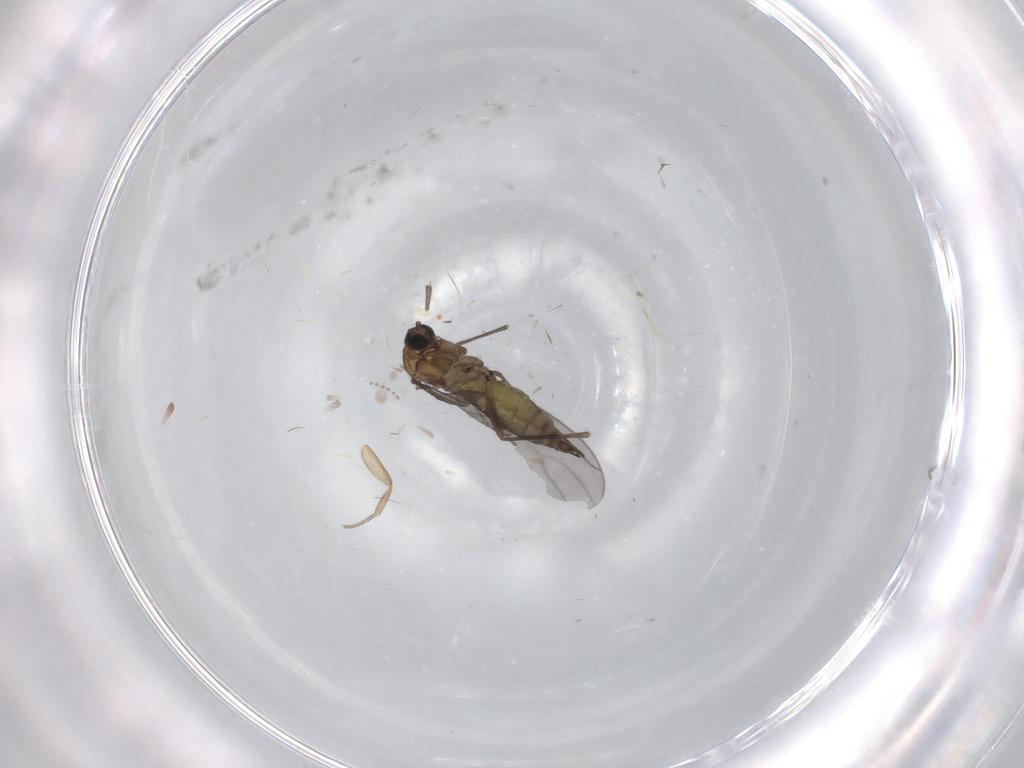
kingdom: Animalia
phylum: Arthropoda
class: Insecta
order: Diptera
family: Sciaridae
